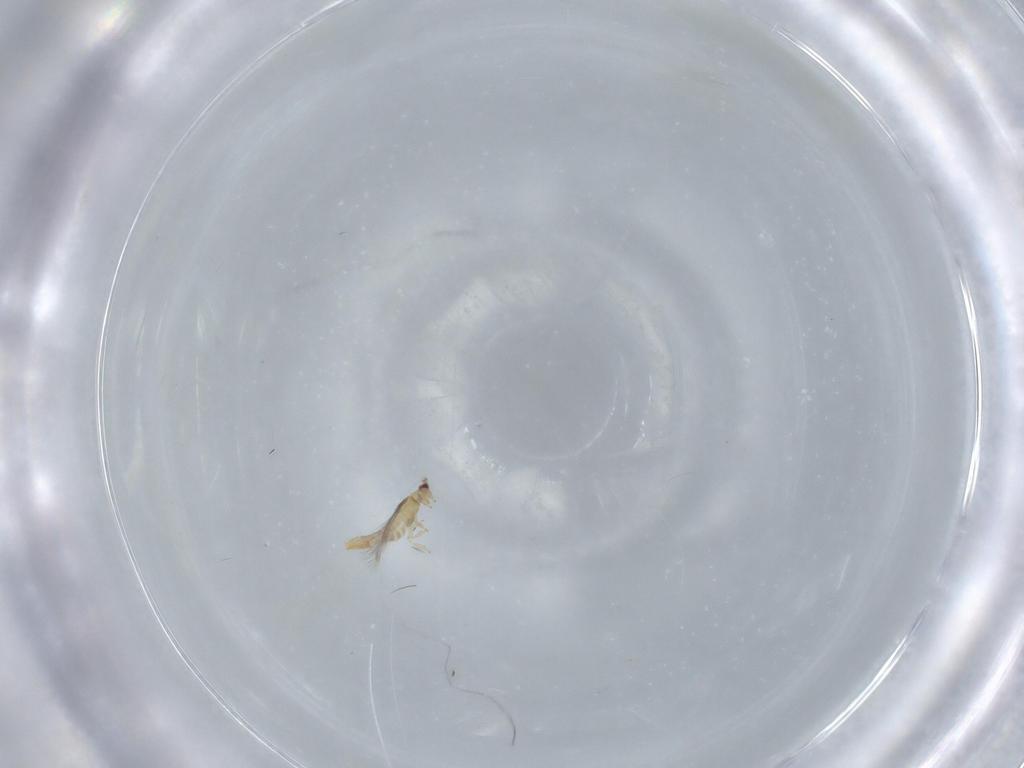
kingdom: Animalia
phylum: Arthropoda
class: Insecta
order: Thysanoptera
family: Thripidae
